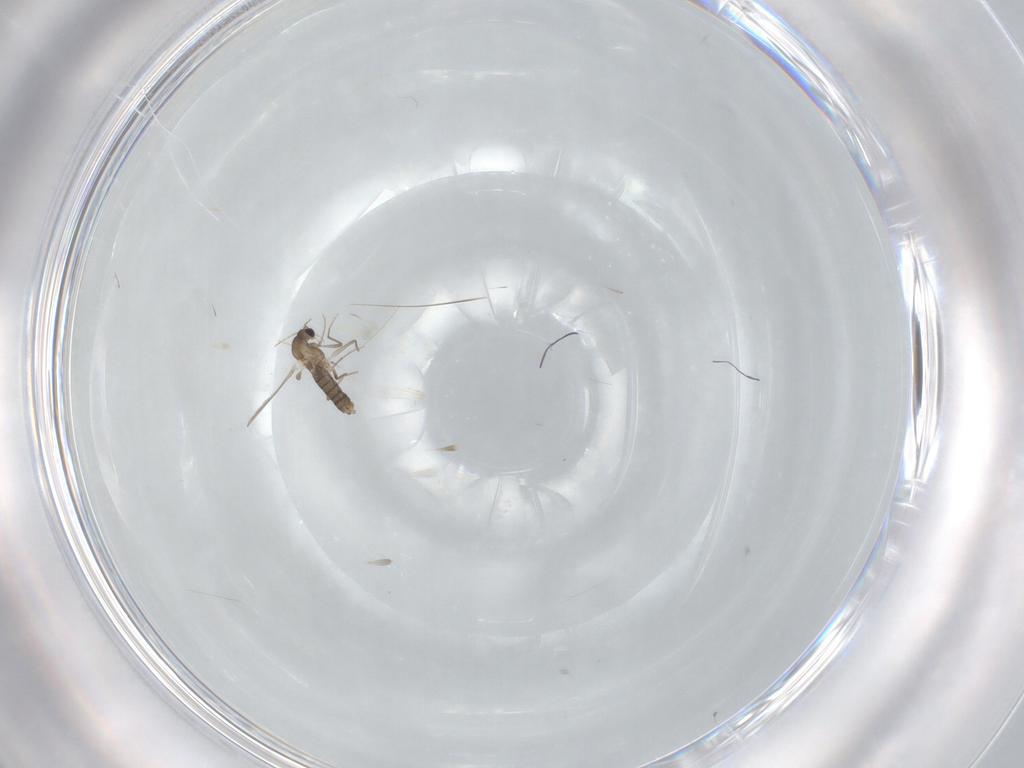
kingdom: Animalia
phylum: Arthropoda
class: Insecta
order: Diptera
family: Chironomidae
